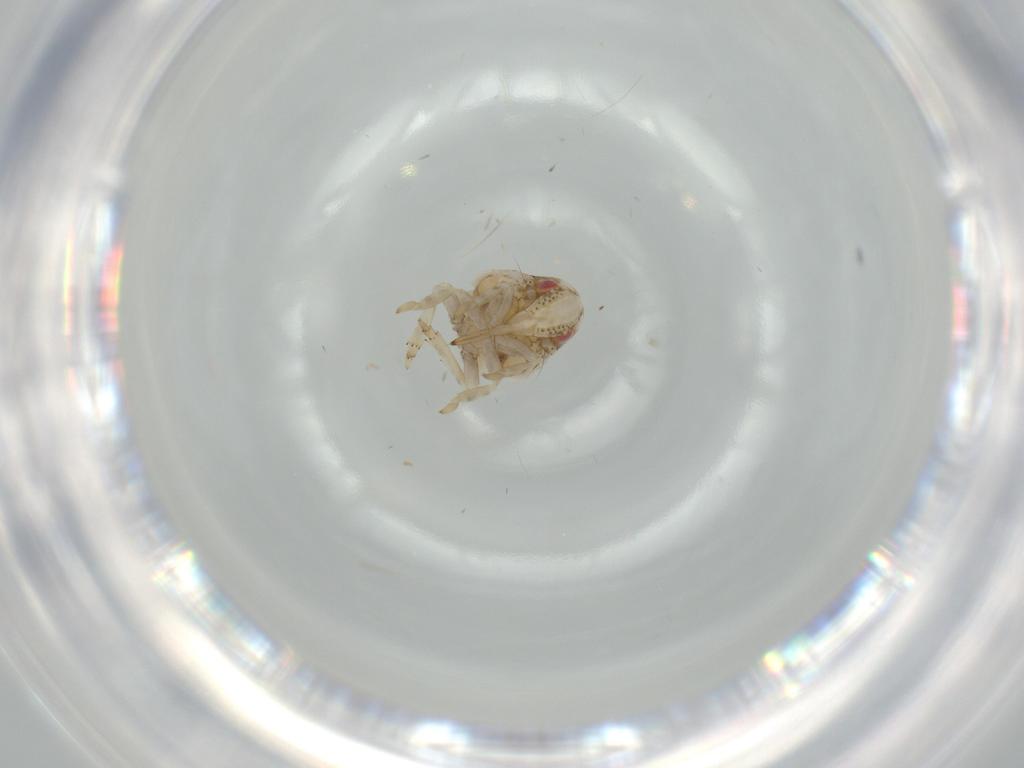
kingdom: Animalia
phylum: Arthropoda
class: Insecta
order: Hemiptera
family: Acanaloniidae
